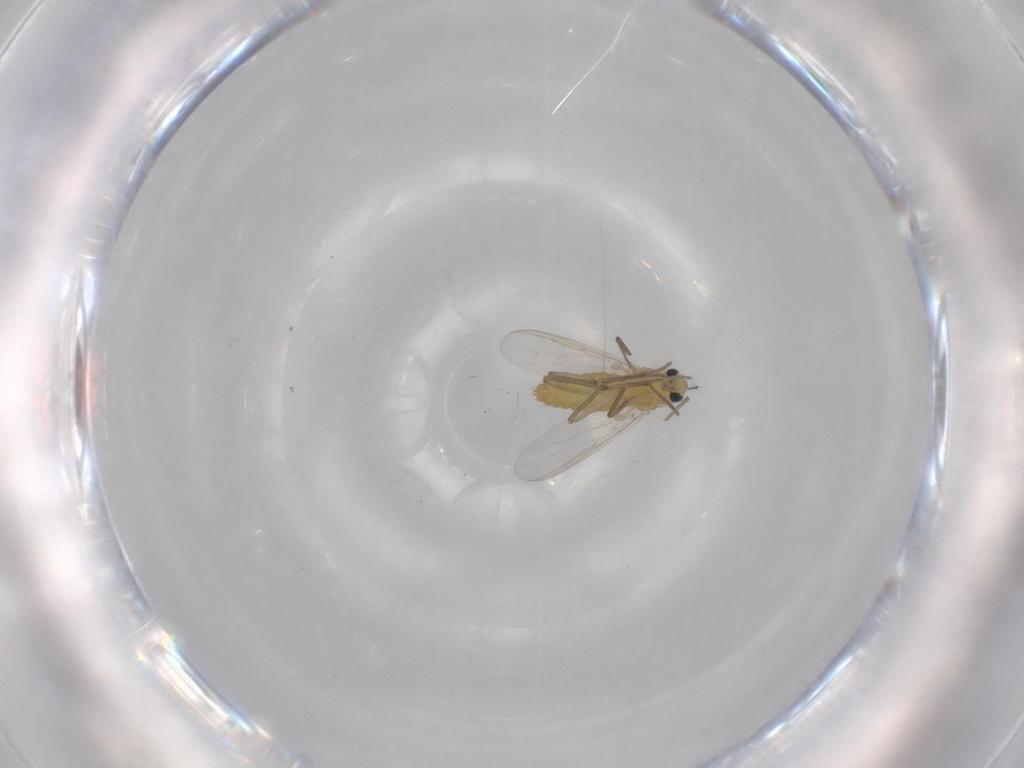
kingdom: Animalia
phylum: Arthropoda
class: Insecta
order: Diptera
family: Chironomidae
